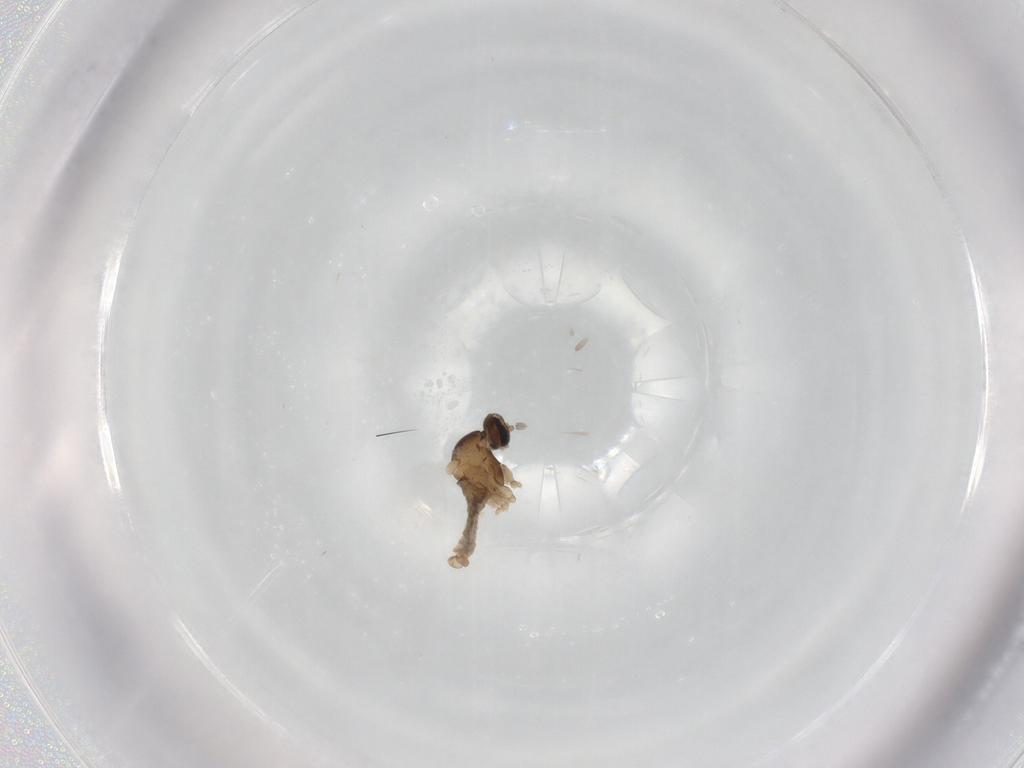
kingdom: Animalia
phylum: Arthropoda
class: Insecta
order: Diptera
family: Cecidomyiidae
